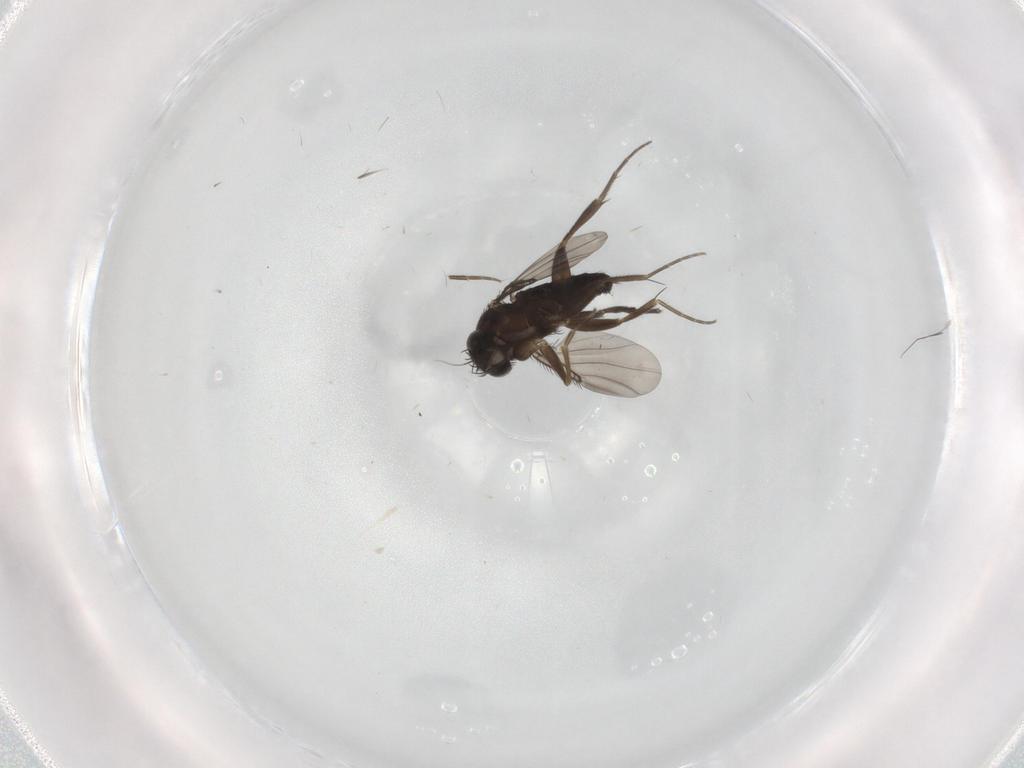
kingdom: Animalia
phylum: Arthropoda
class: Insecta
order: Diptera
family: Phoridae
